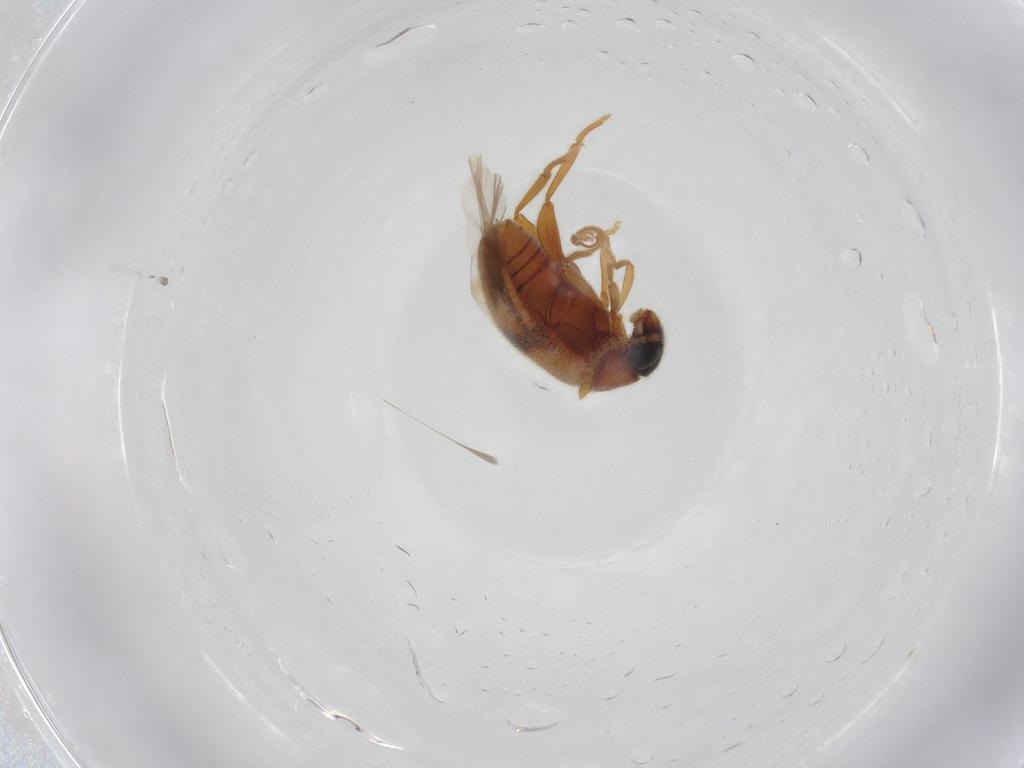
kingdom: Animalia
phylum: Arthropoda
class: Insecta
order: Coleoptera
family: Aderidae
